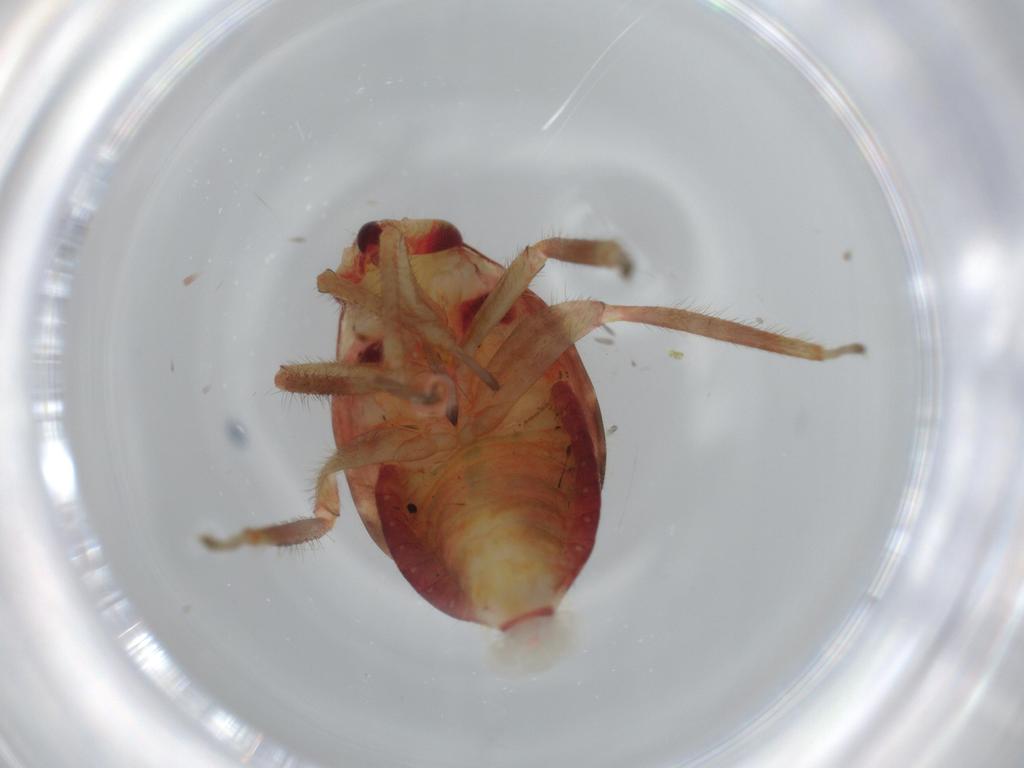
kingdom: Animalia
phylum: Arthropoda
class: Insecta
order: Hemiptera
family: Miridae
